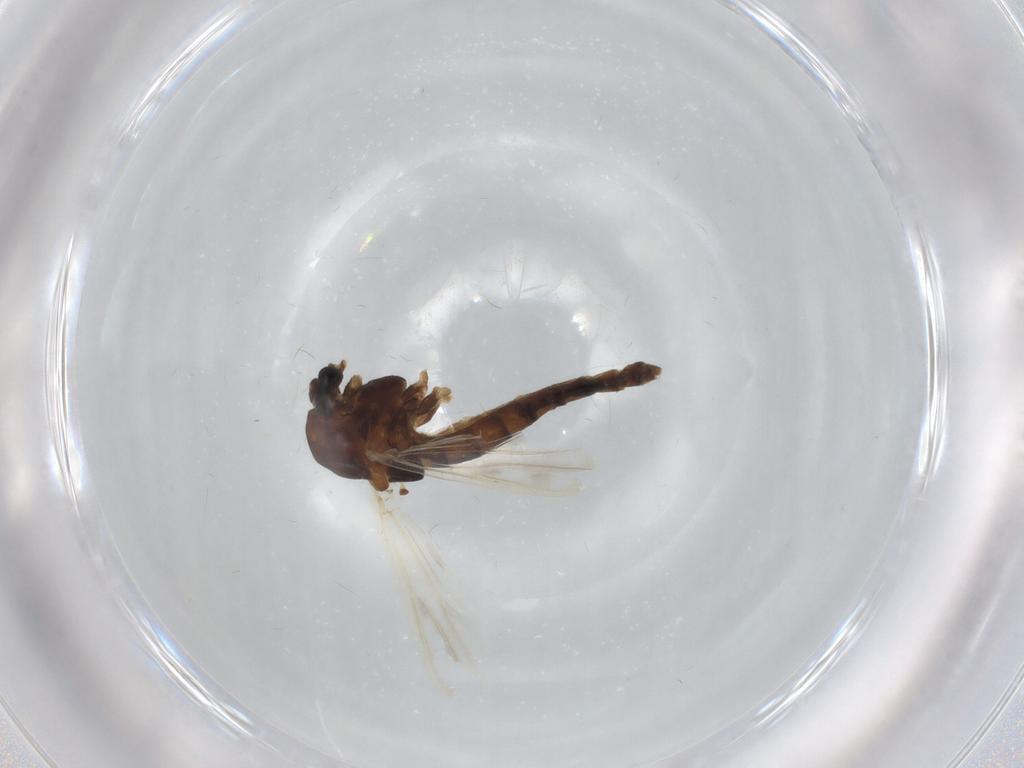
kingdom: Animalia
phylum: Arthropoda
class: Insecta
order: Diptera
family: Chironomidae
